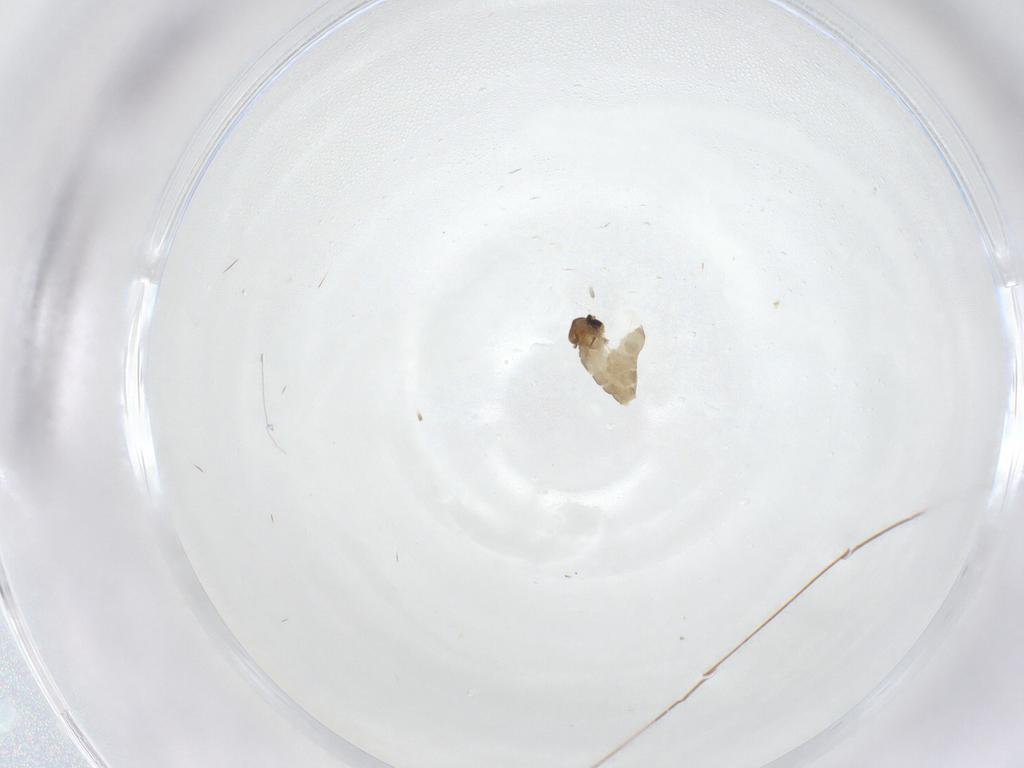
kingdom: Animalia
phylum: Arthropoda
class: Insecta
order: Diptera
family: Cecidomyiidae
